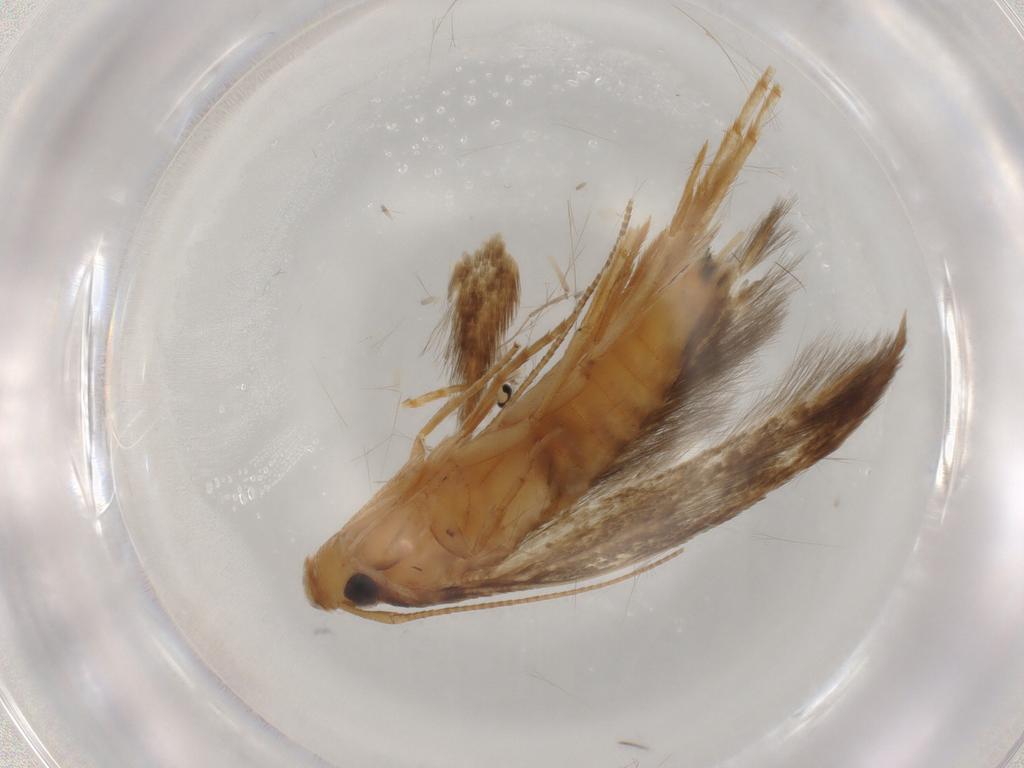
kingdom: Animalia
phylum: Arthropoda
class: Insecta
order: Lepidoptera
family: Tineidae
